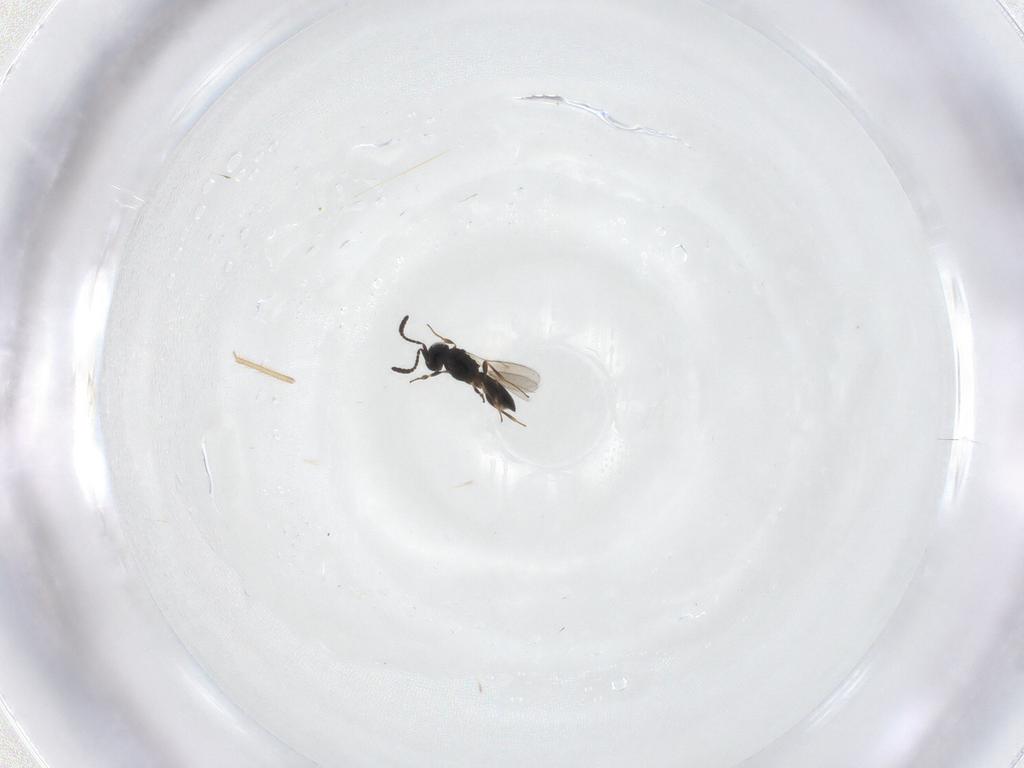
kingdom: Animalia
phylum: Arthropoda
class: Insecta
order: Hymenoptera
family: Scelionidae
